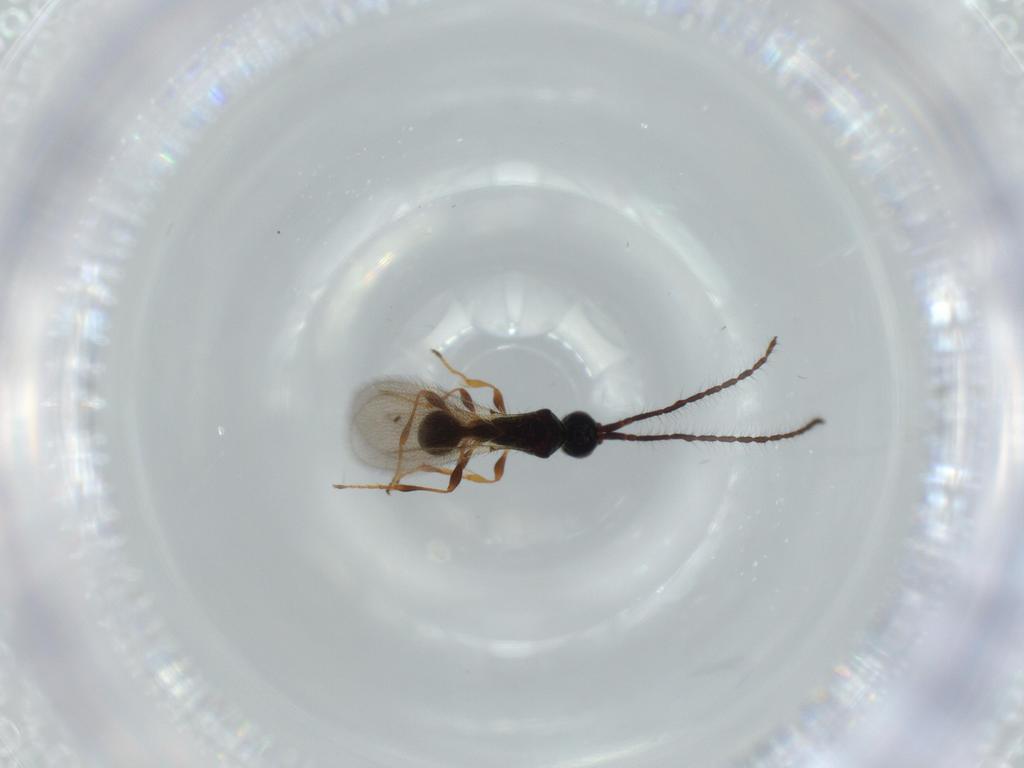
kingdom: Animalia
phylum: Arthropoda
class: Insecta
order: Hymenoptera
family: Diapriidae
